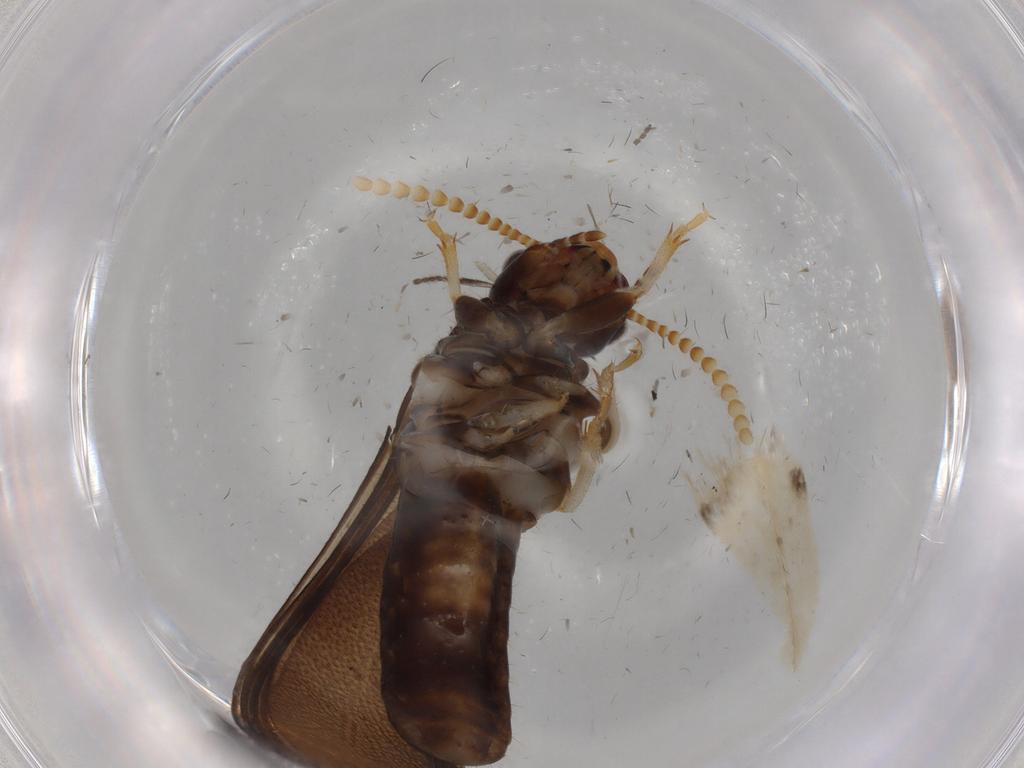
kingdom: Animalia
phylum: Arthropoda
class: Insecta
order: Blattodea
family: Kalotermitidae
